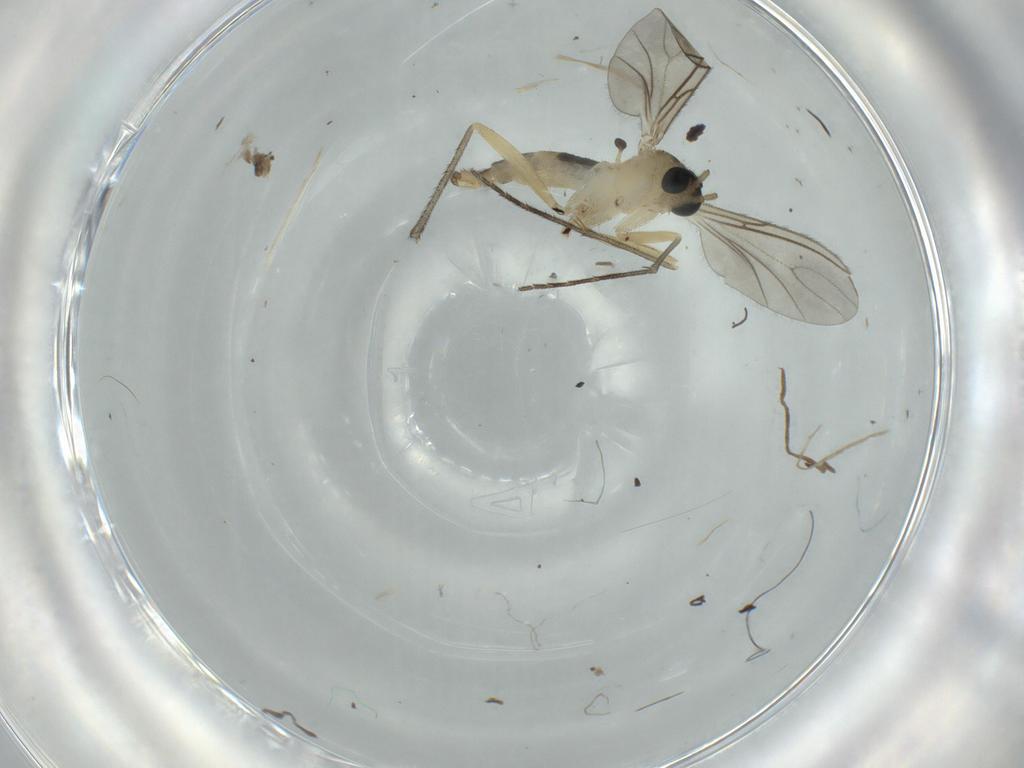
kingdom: Animalia
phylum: Arthropoda
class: Insecta
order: Diptera
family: Sciaridae
